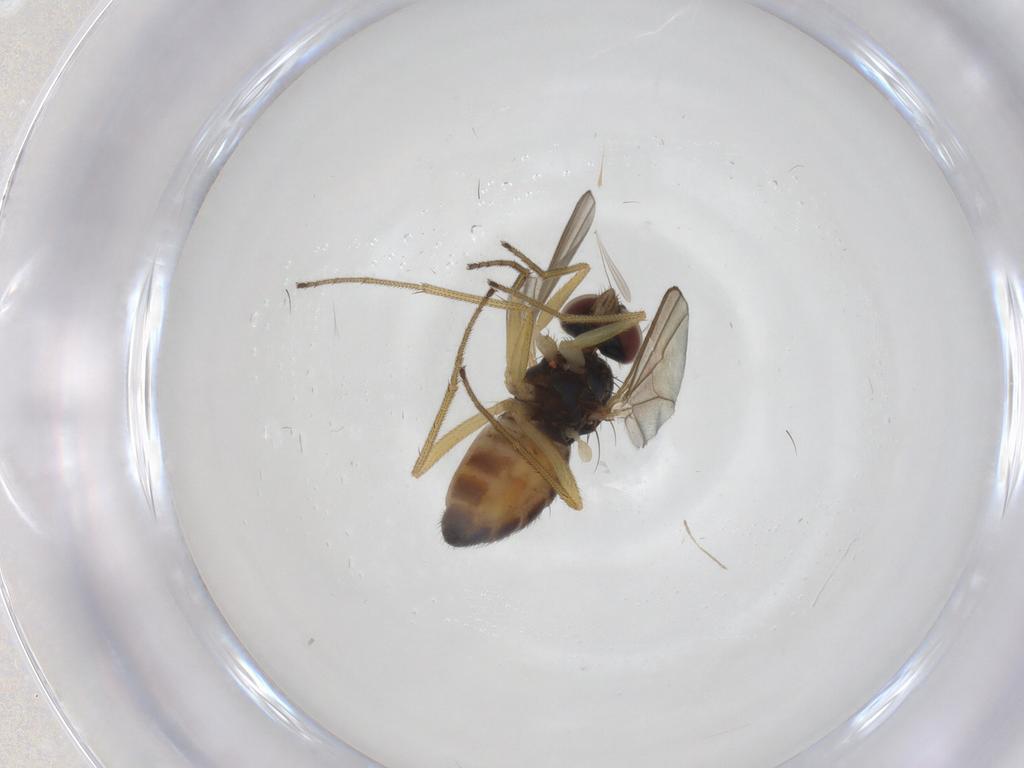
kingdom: Animalia
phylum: Arthropoda
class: Insecta
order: Diptera
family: Dolichopodidae
